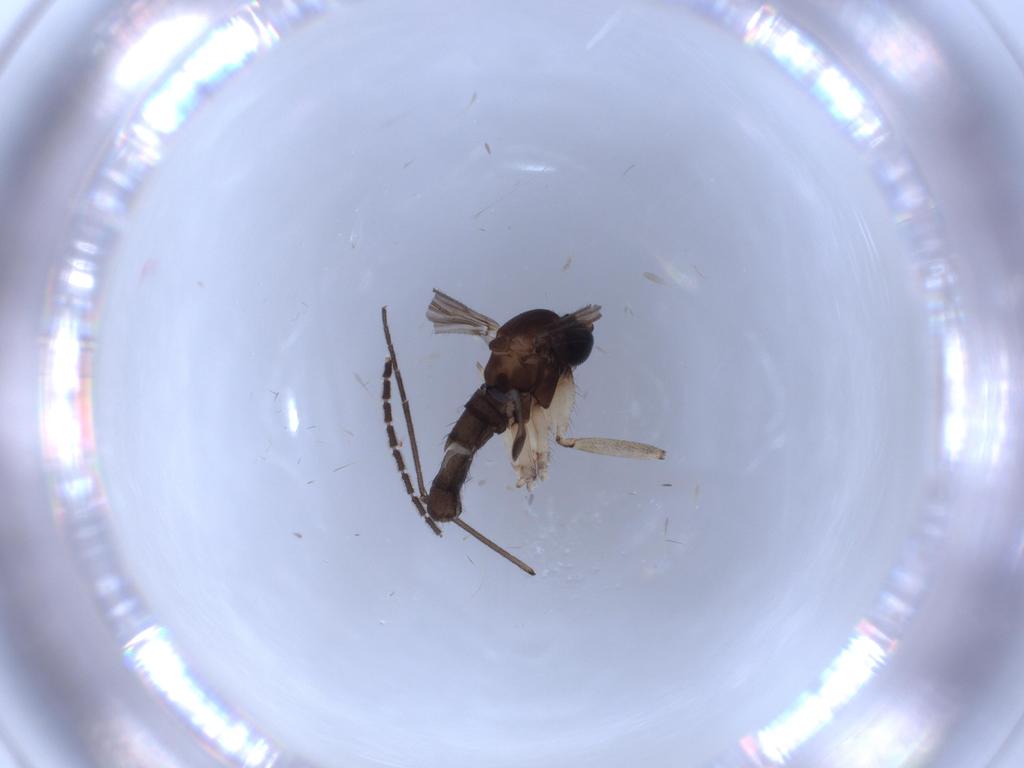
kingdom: Animalia
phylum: Arthropoda
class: Insecta
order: Diptera
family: Sciaridae
